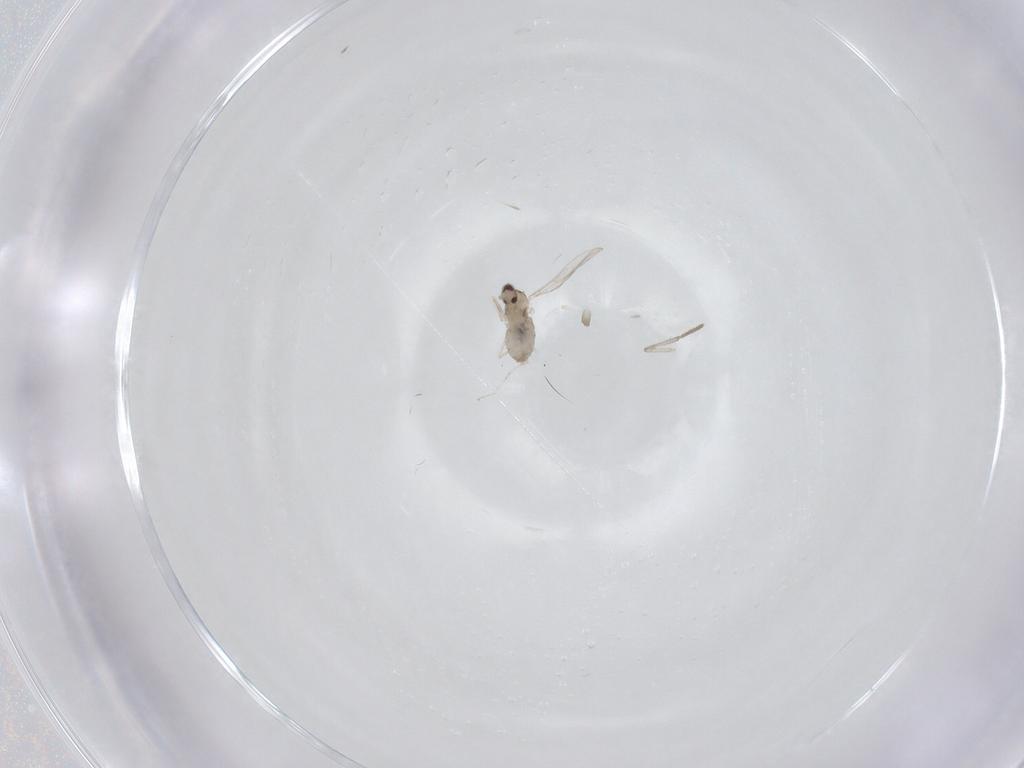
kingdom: Animalia
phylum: Arthropoda
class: Insecta
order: Diptera
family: Cecidomyiidae
